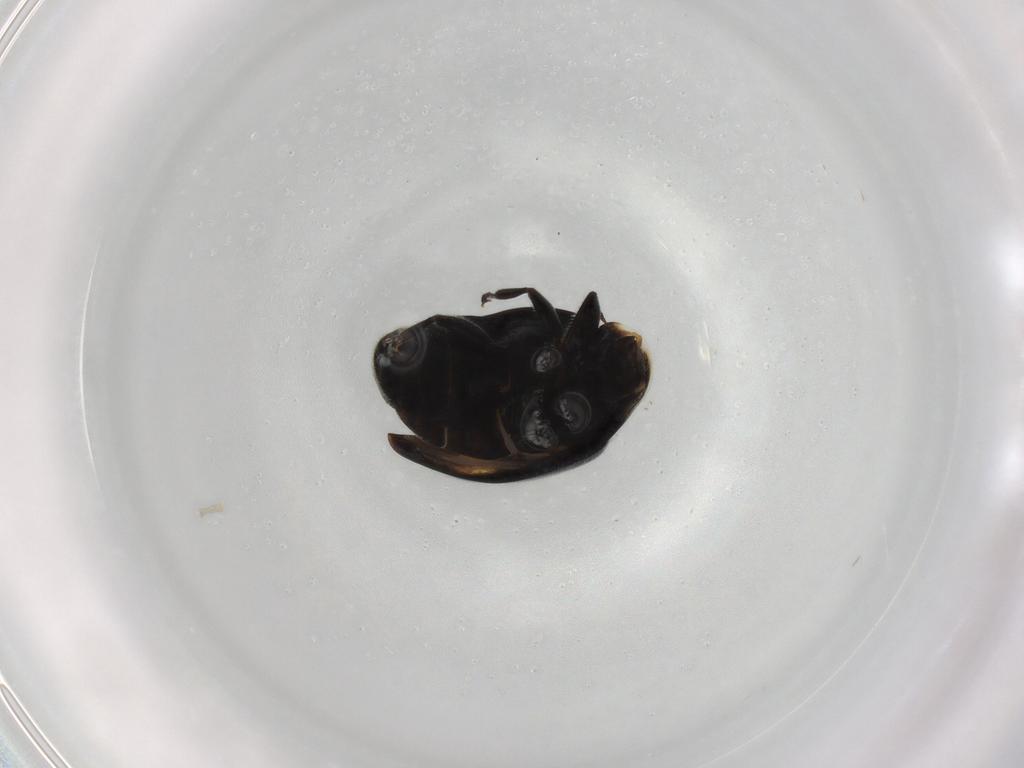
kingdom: Animalia
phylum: Arthropoda
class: Insecta
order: Coleoptera
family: Coccinellidae
